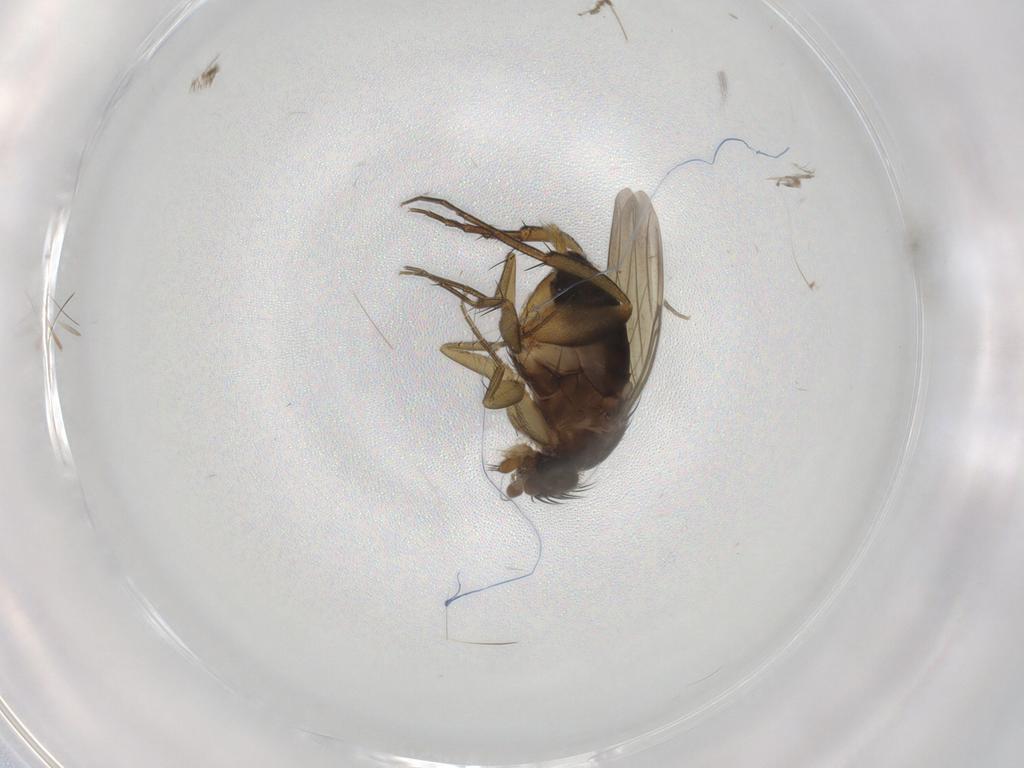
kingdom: Animalia
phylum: Arthropoda
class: Insecta
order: Diptera
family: Phoridae
